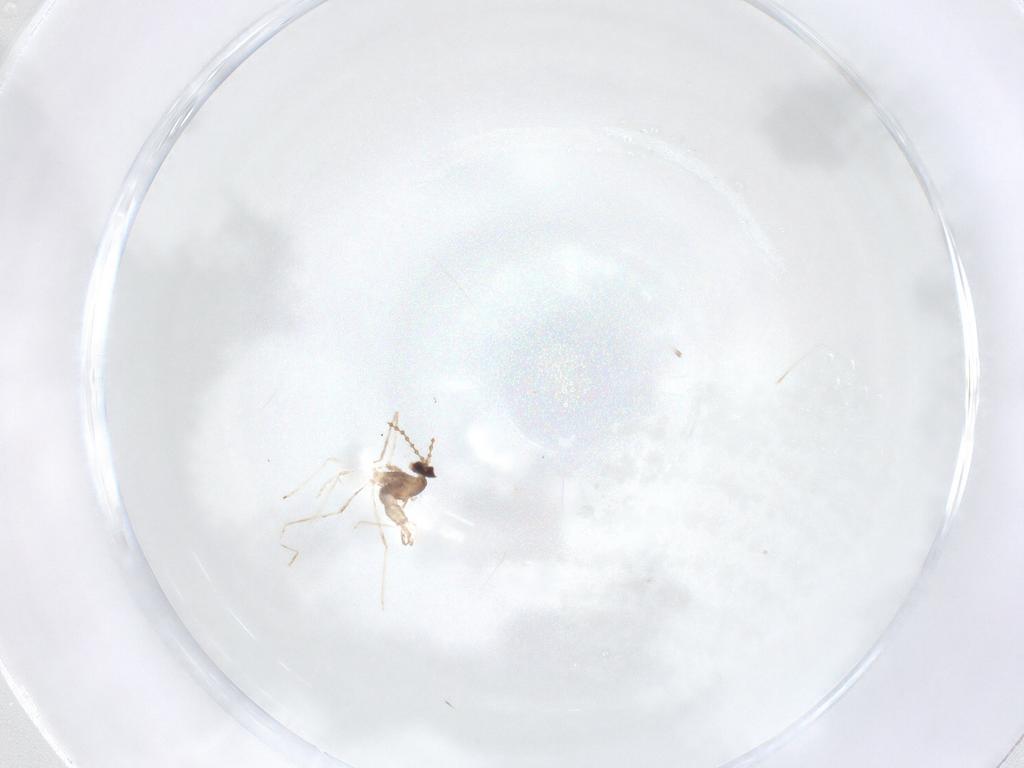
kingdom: Animalia
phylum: Arthropoda
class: Insecta
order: Diptera
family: Cecidomyiidae
